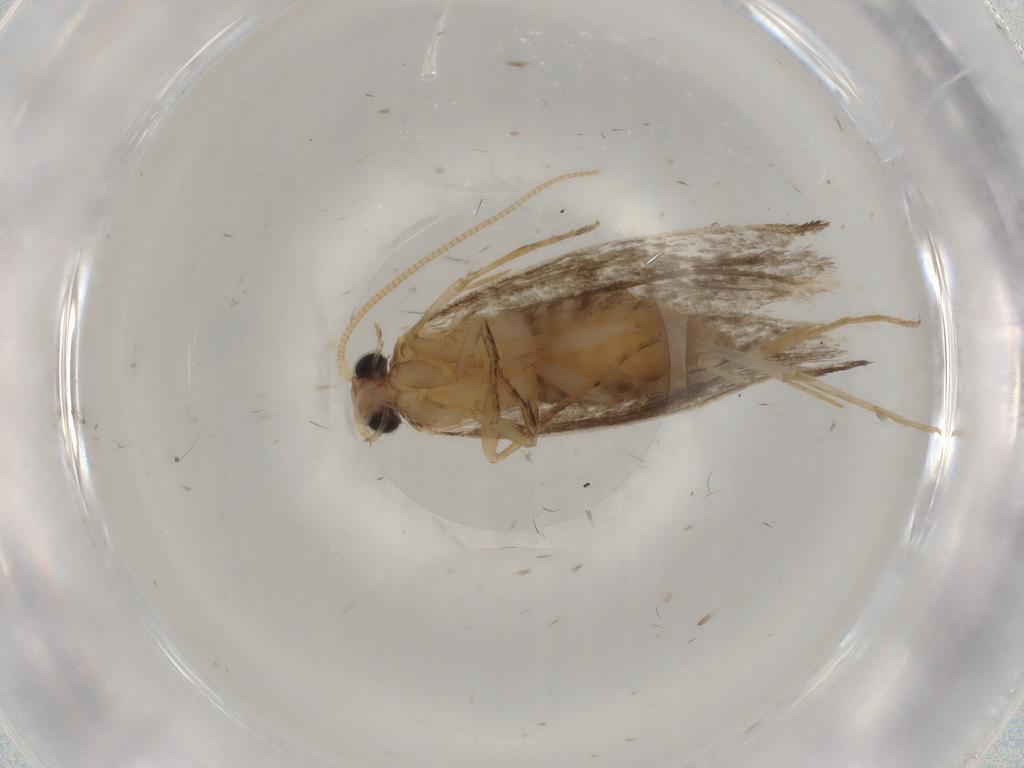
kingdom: Animalia
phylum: Arthropoda
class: Insecta
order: Lepidoptera
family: Tineidae
